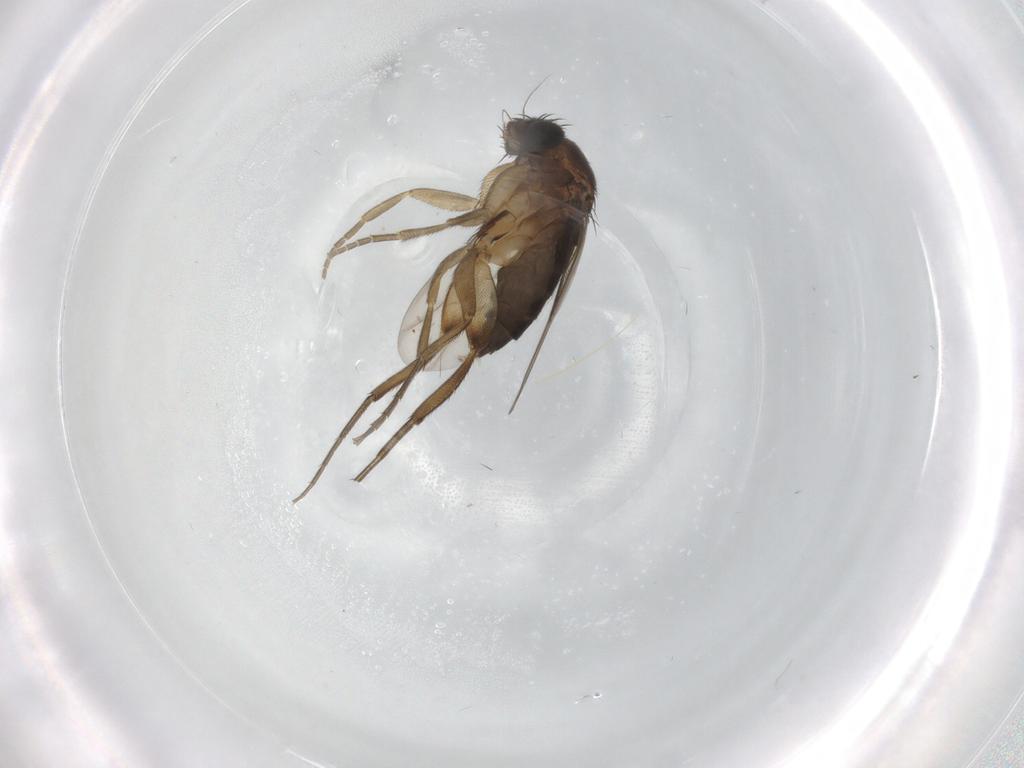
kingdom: Animalia
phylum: Arthropoda
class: Insecta
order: Diptera
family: Phoridae
